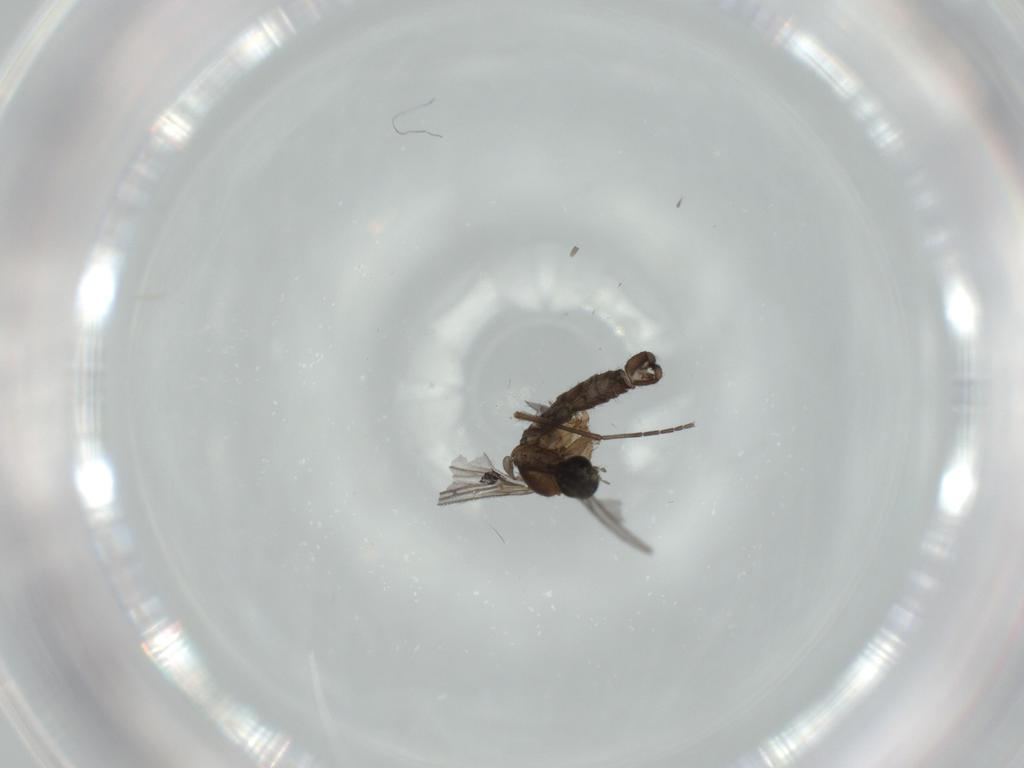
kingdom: Animalia
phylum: Arthropoda
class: Insecta
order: Diptera
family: Sciaridae
